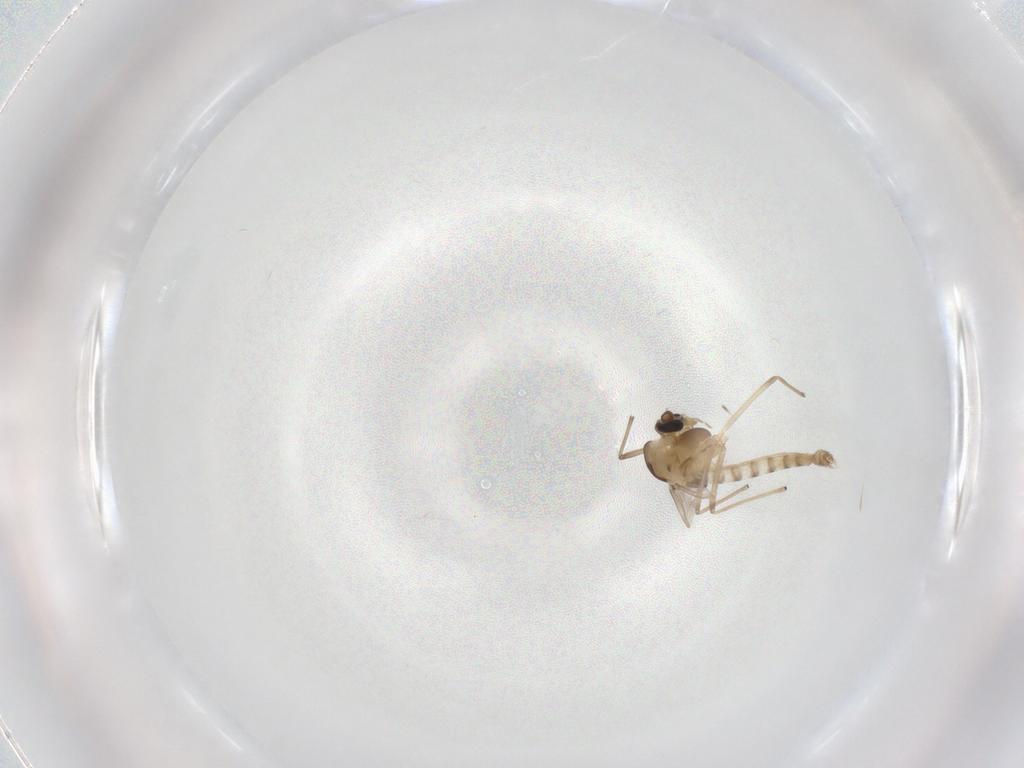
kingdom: Animalia
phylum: Arthropoda
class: Insecta
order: Diptera
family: Chironomidae
